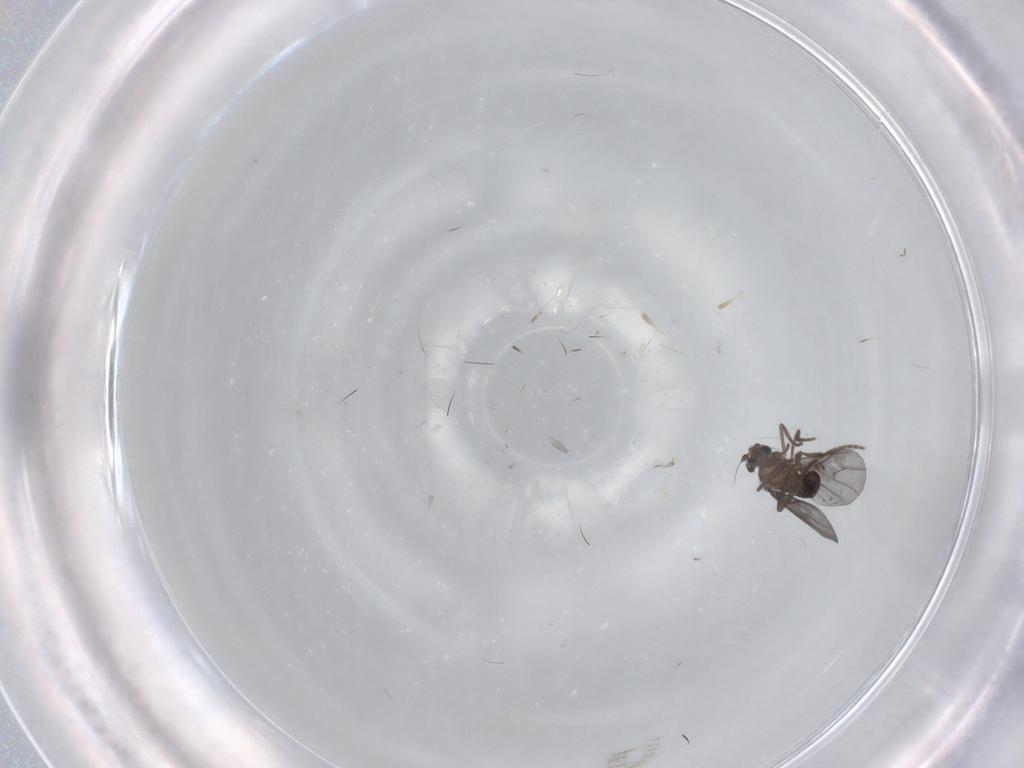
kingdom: Animalia
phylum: Arthropoda
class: Insecta
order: Diptera
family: Phoridae
